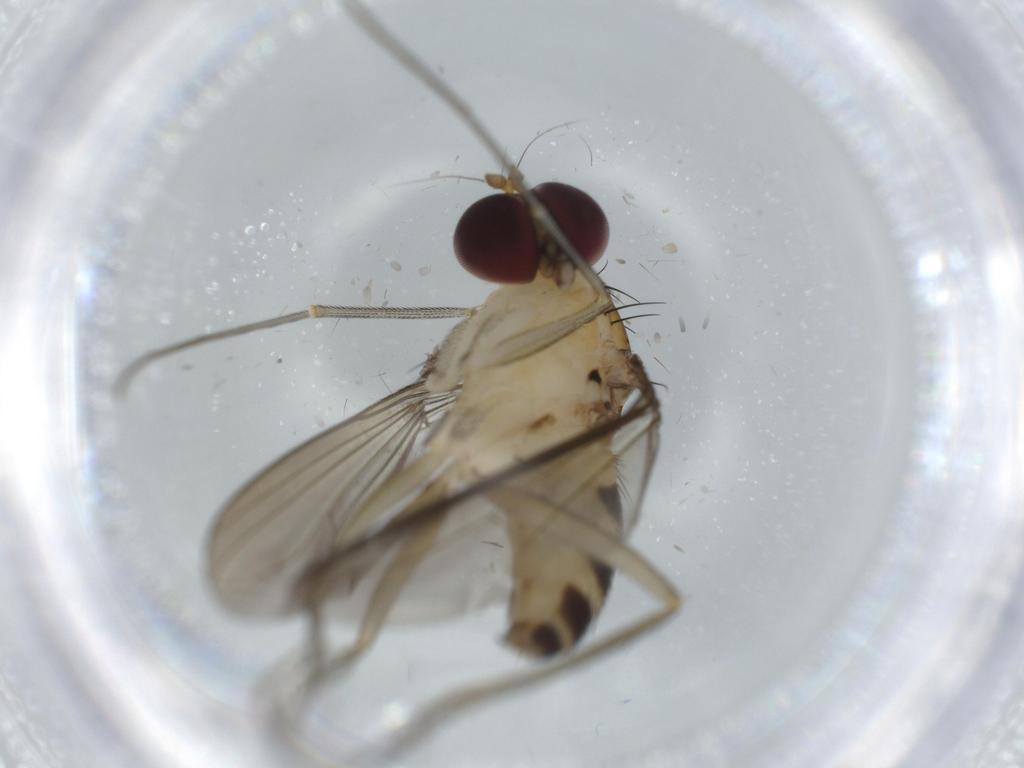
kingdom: Animalia
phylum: Arthropoda
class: Insecta
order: Diptera
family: Dolichopodidae
